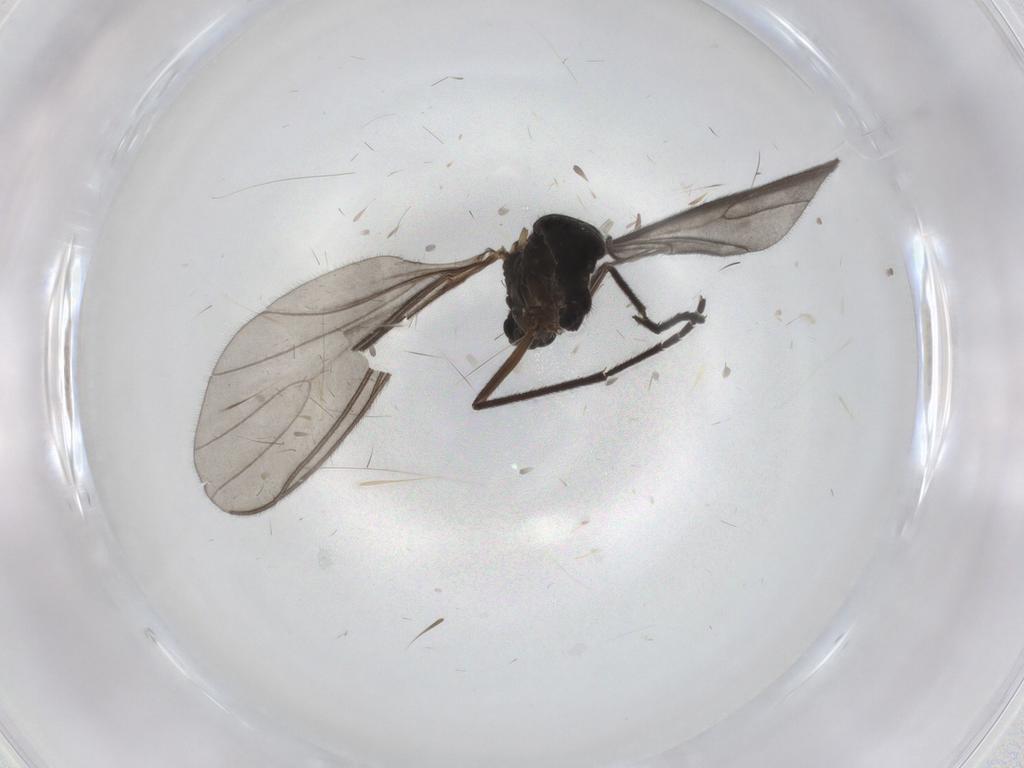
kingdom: Animalia
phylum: Arthropoda
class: Insecta
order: Diptera
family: Sciaridae
